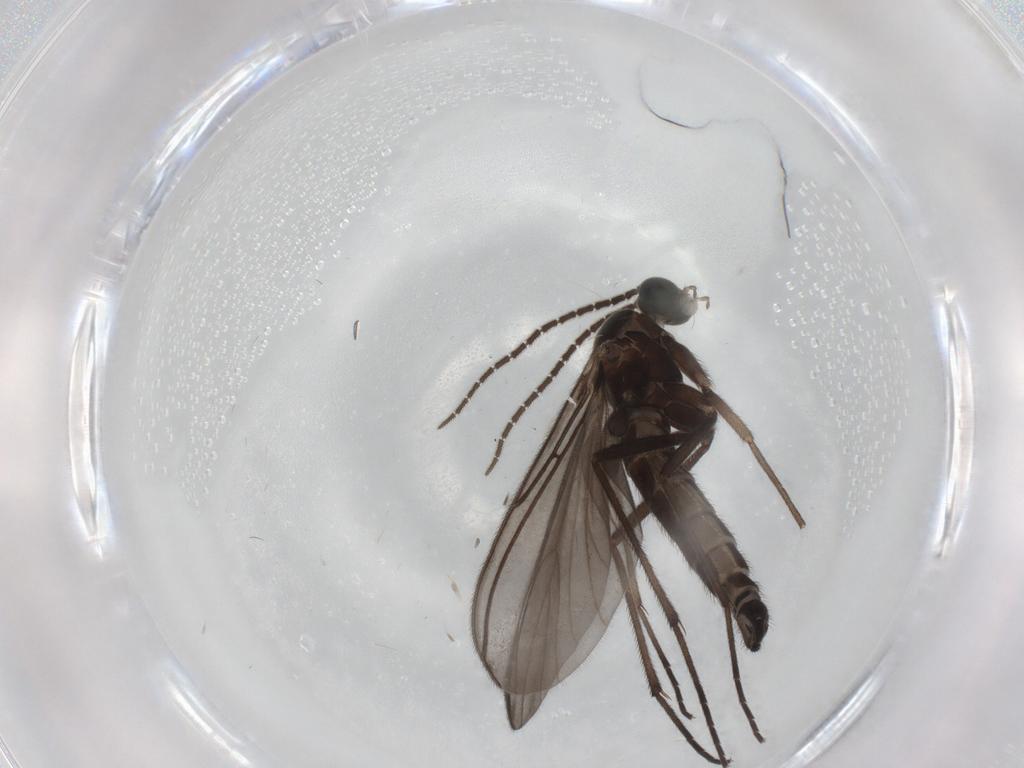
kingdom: Animalia
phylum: Arthropoda
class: Insecta
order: Diptera
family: Sciaridae
